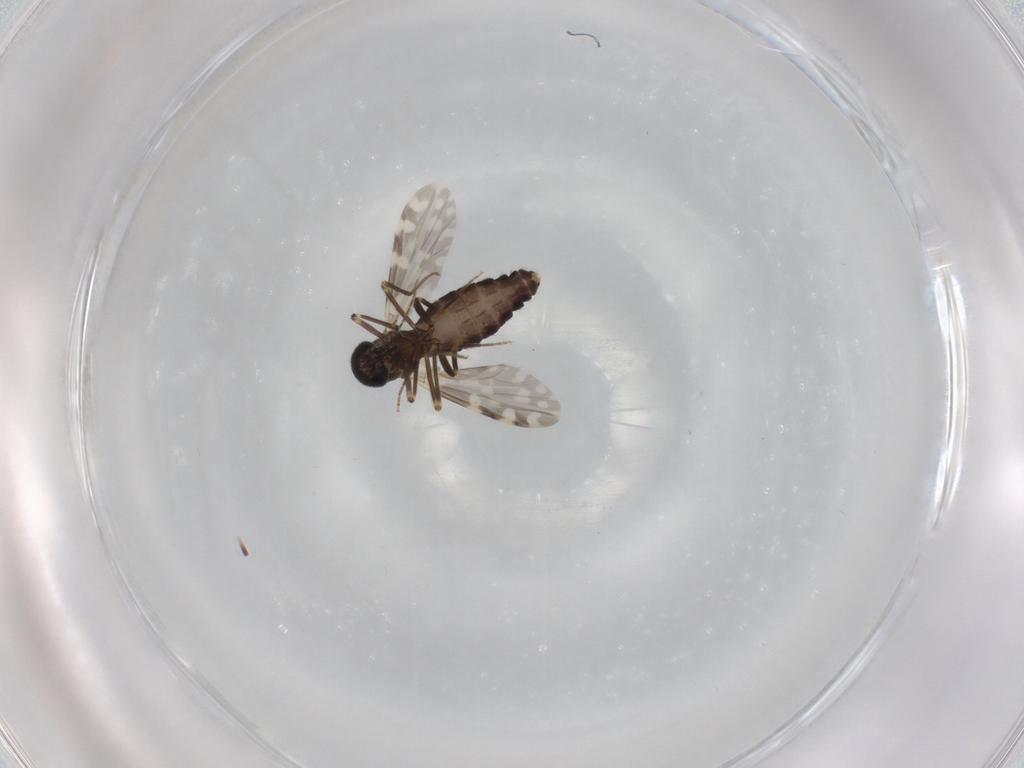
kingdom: Animalia
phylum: Arthropoda
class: Insecta
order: Diptera
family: Ceratopogonidae
